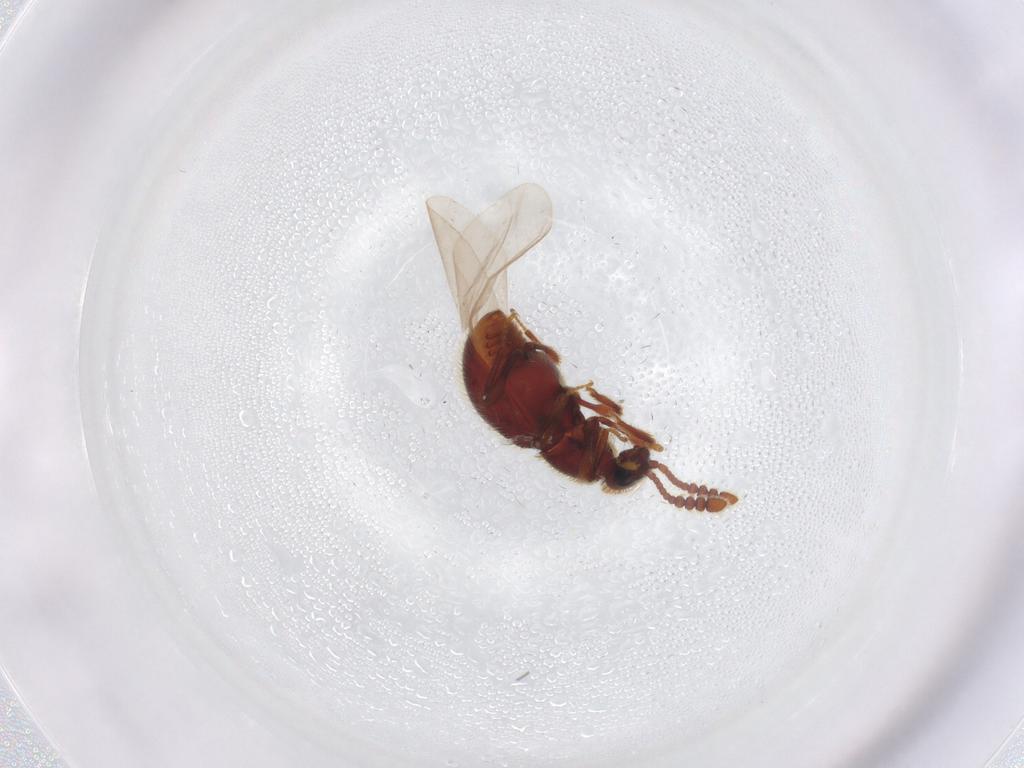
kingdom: Animalia
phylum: Arthropoda
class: Insecta
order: Coleoptera
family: Staphylinidae
